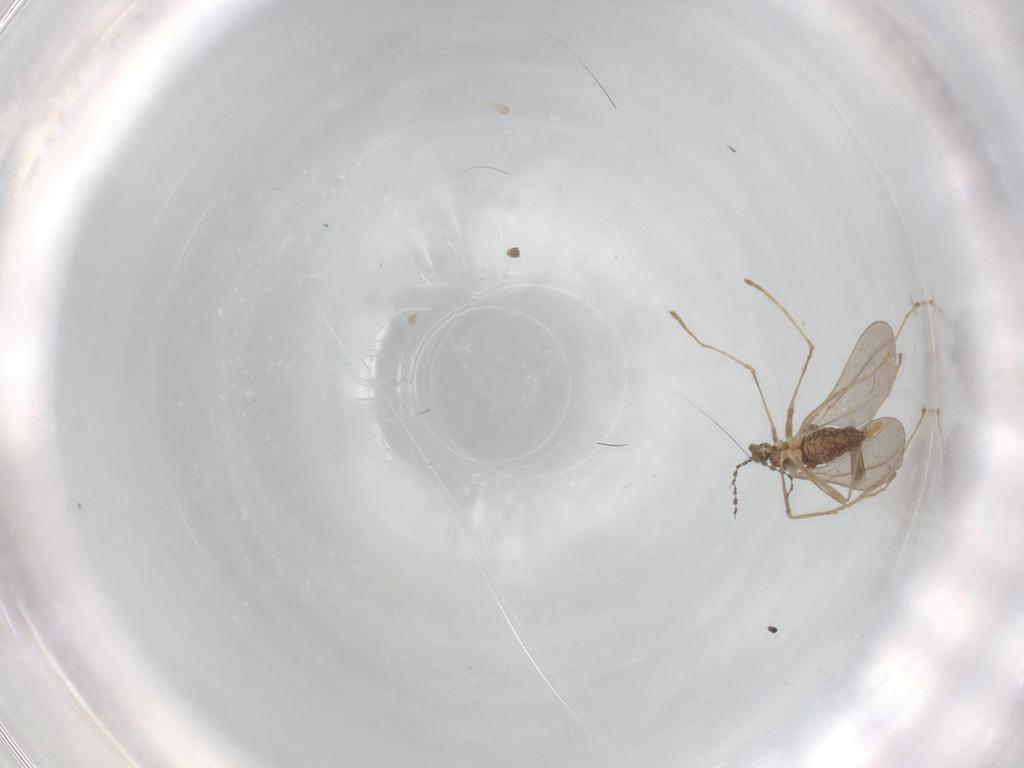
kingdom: Animalia
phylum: Arthropoda
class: Insecta
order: Diptera
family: Cecidomyiidae
